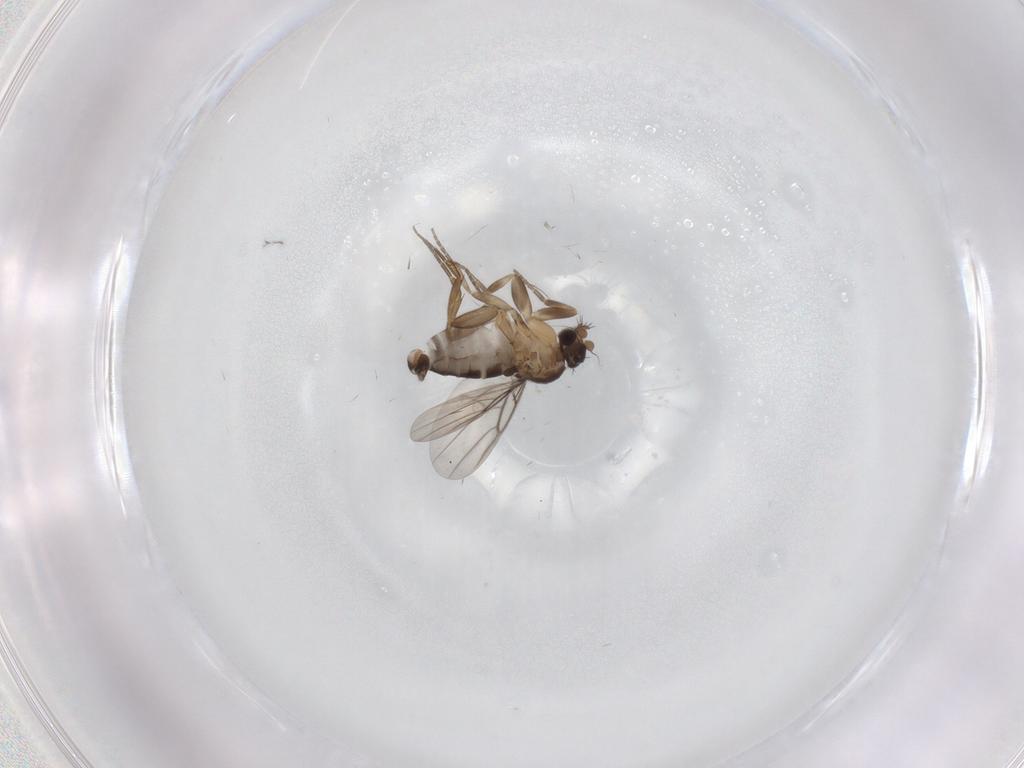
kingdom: Animalia
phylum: Arthropoda
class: Insecta
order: Diptera
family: Phoridae
